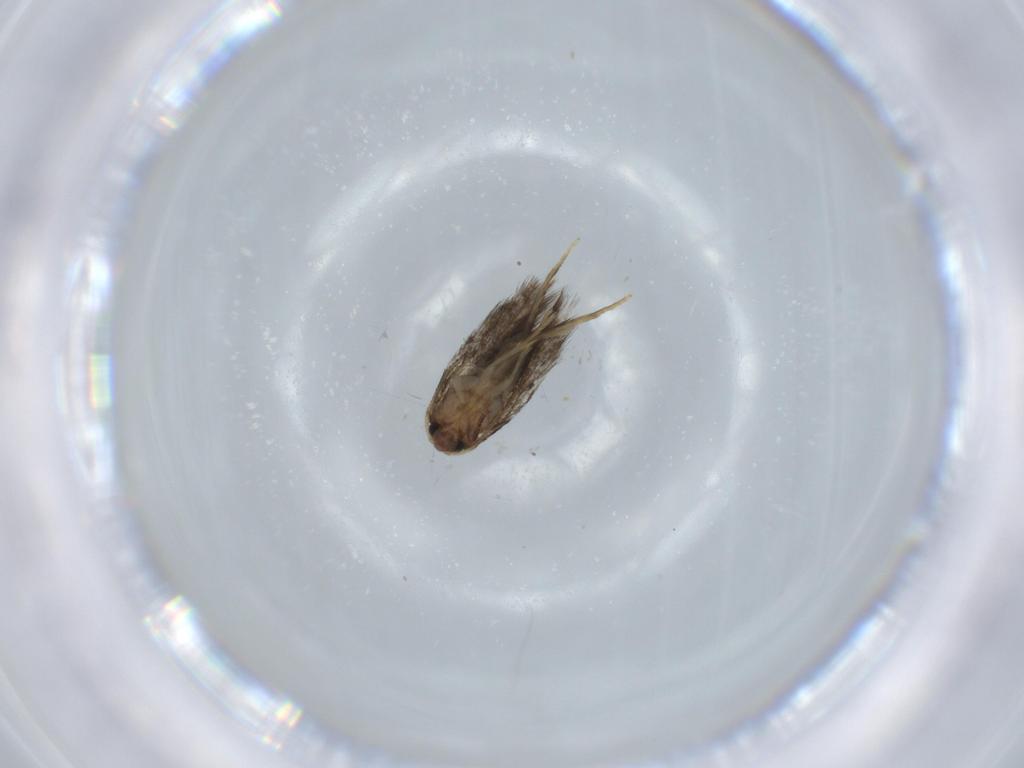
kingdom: Animalia
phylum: Arthropoda
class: Insecta
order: Lepidoptera
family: Nepticulidae
